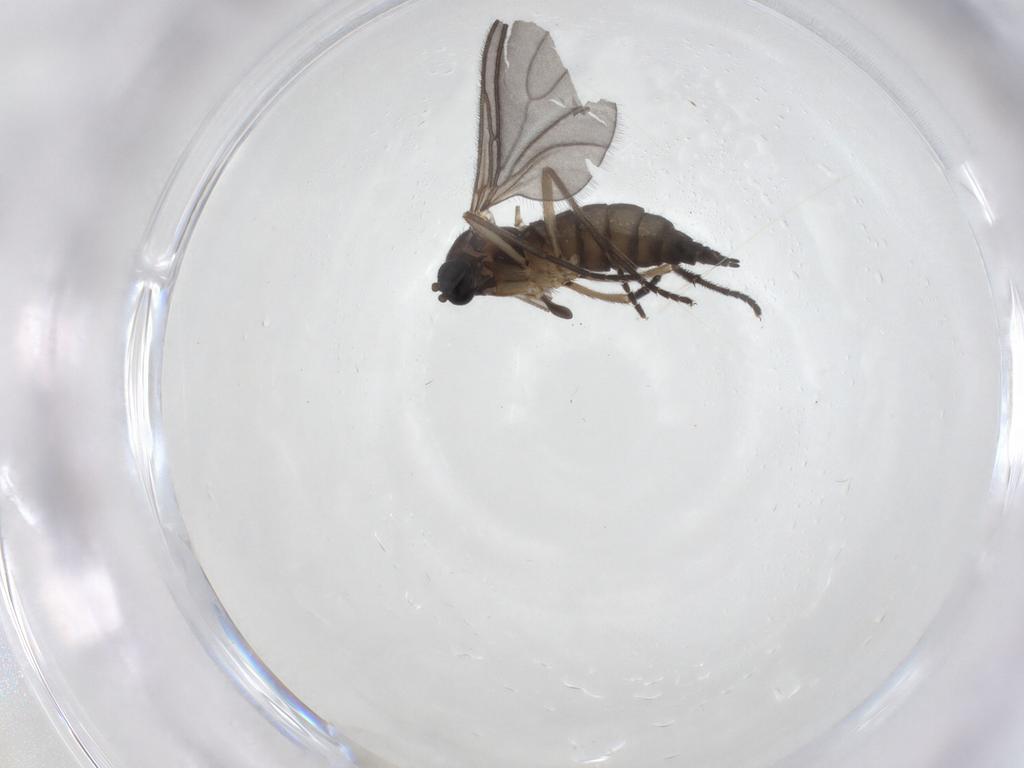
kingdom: Animalia
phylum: Arthropoda
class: Insecta
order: Diptera
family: Sciaridae
